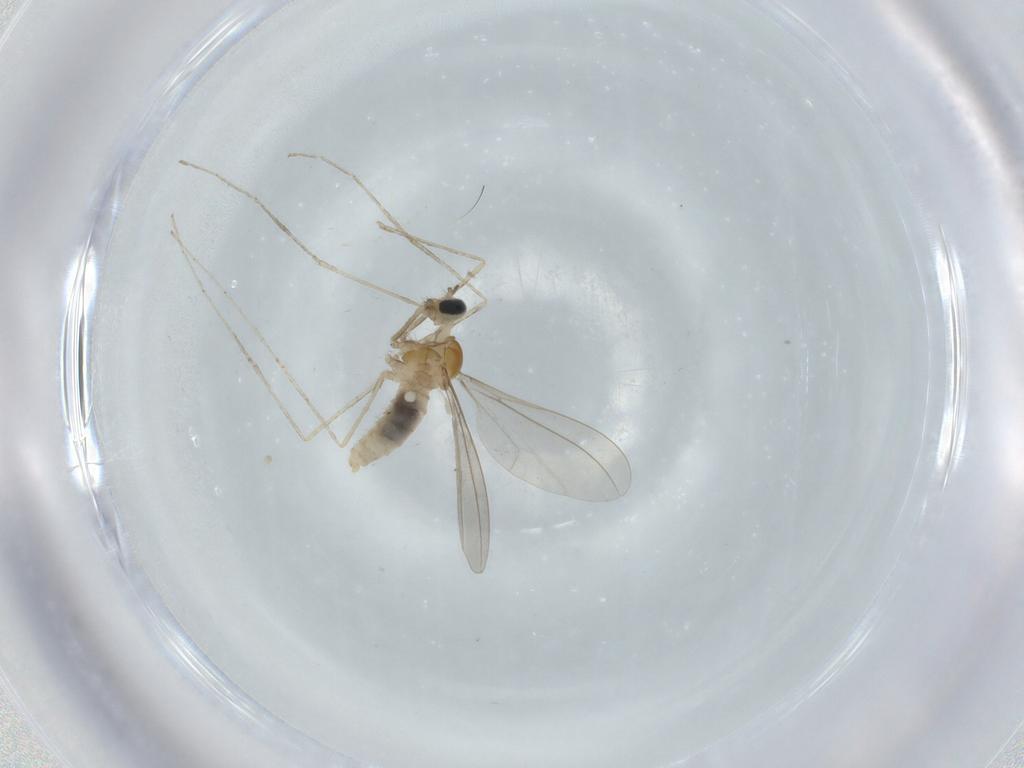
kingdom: Animalia
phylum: Arthropoda
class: Insecta
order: Diptera
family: Cecidomyiidae
